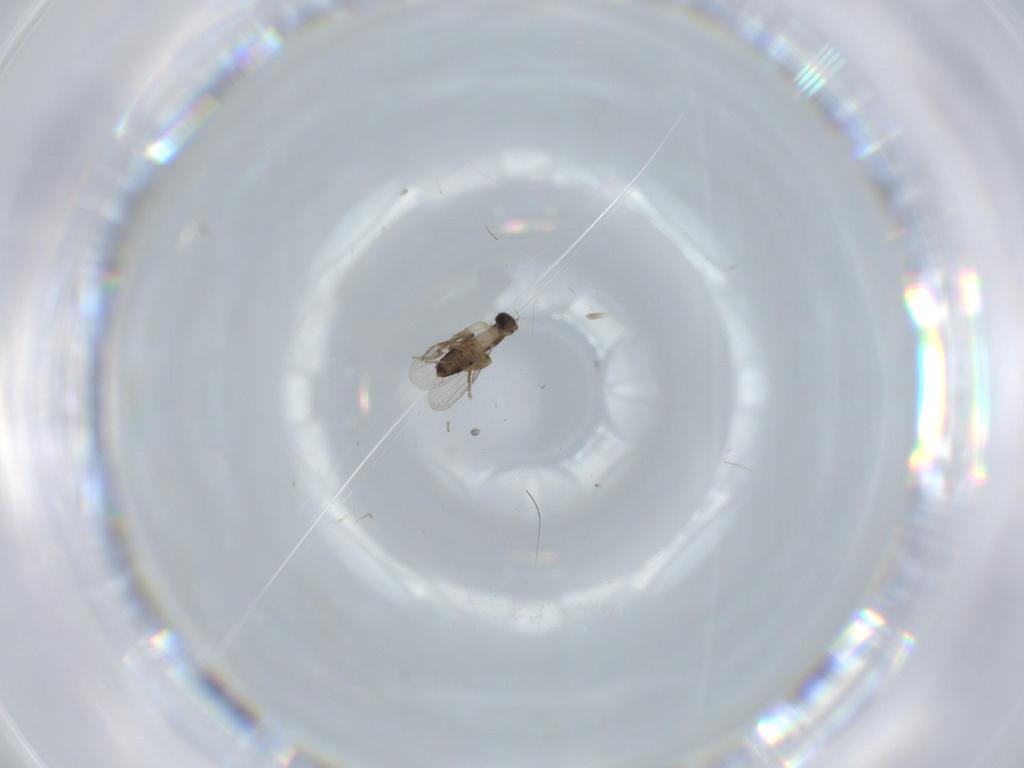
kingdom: Animalia
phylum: Arthropoda
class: Insecta
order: Diptera
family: Phoridae
